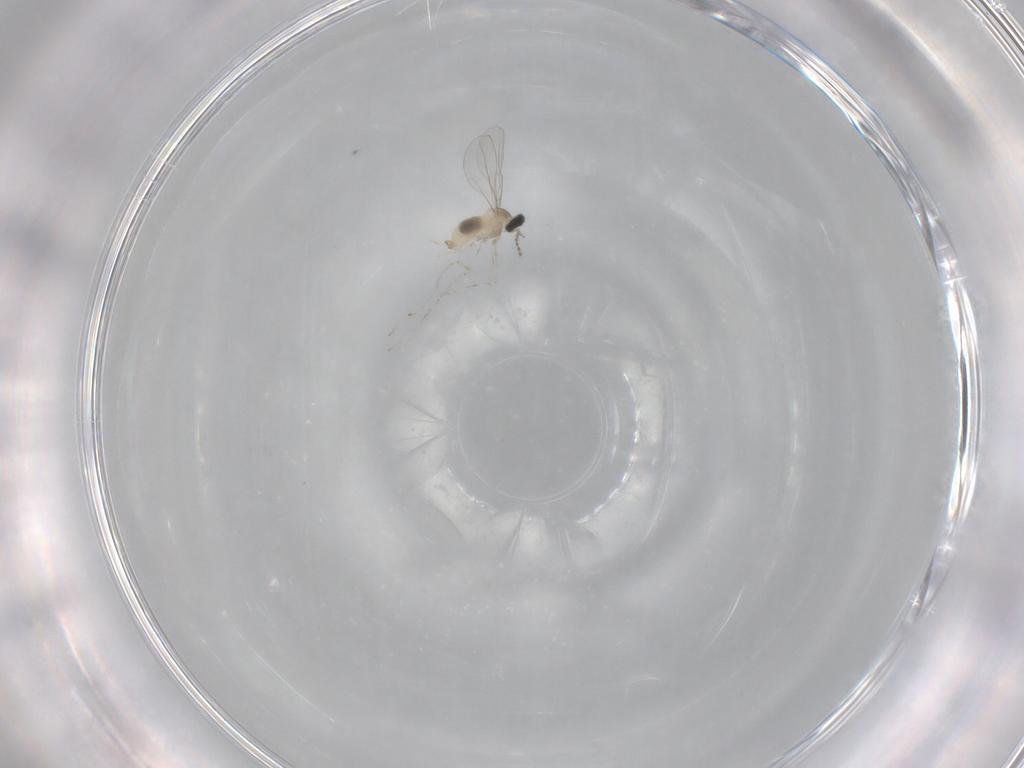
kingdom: Animalia
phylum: Arthropoda
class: Insecta
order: Diptera
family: Cecidomyiidae
